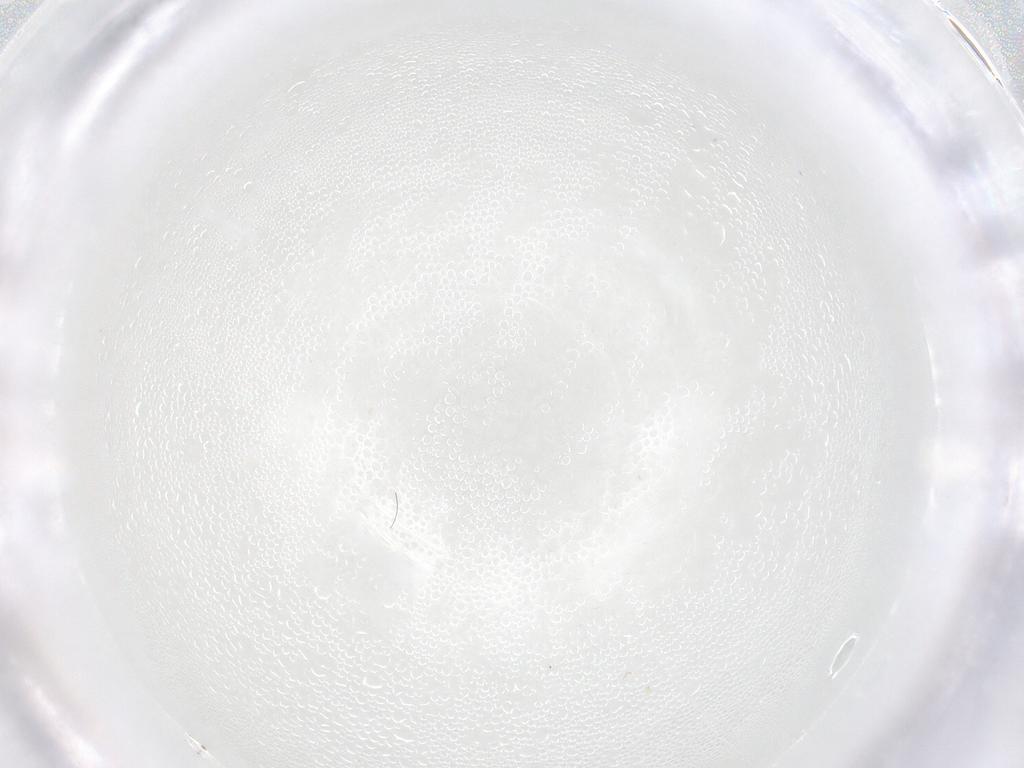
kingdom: Animalia
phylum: Arthropoda
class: Arachnida
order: Trombidiformes
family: Eupodidae
